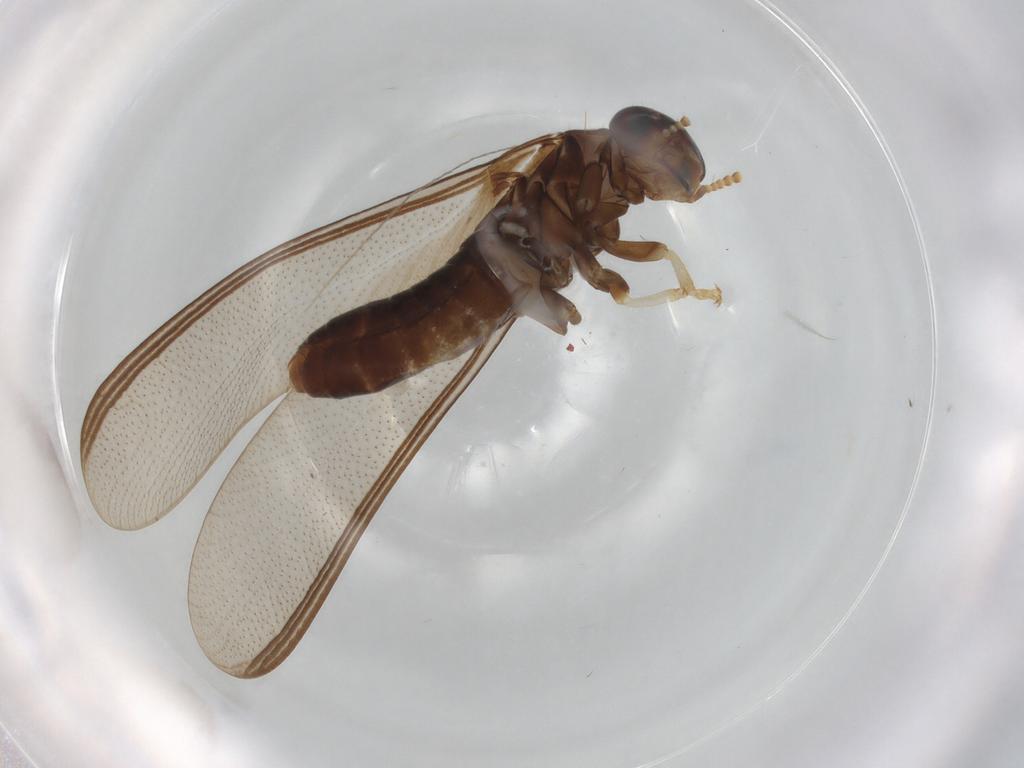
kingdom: Animalia
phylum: Arthropoda
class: Insecta
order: Blattodea
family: Kalotermitidae
